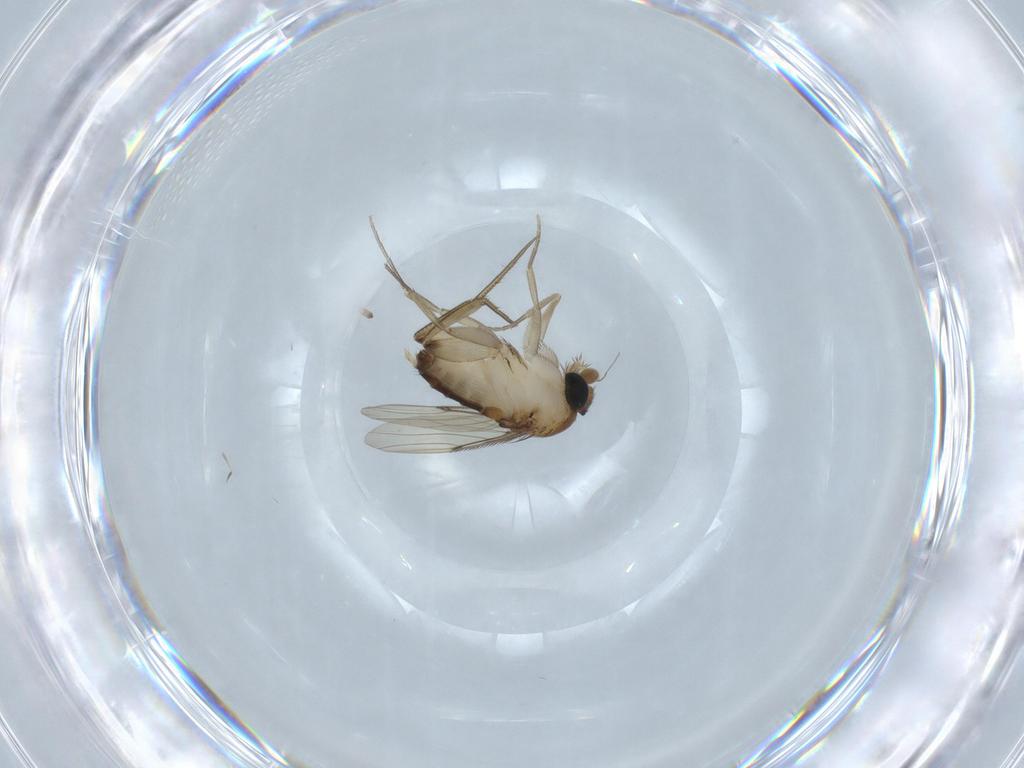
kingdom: Animalia
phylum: Arthropoda
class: Insecta
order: Diptera
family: Phoridae
